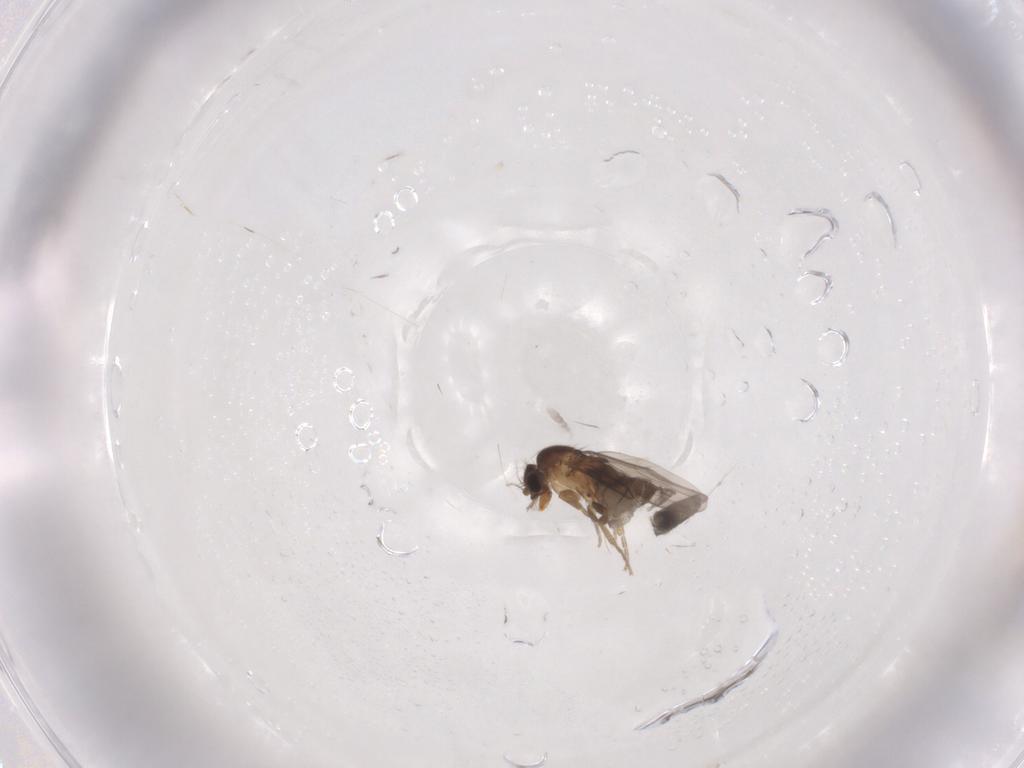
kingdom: Animalia
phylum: Arthropoda
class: Insecta
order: Diptera
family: Phoridae
